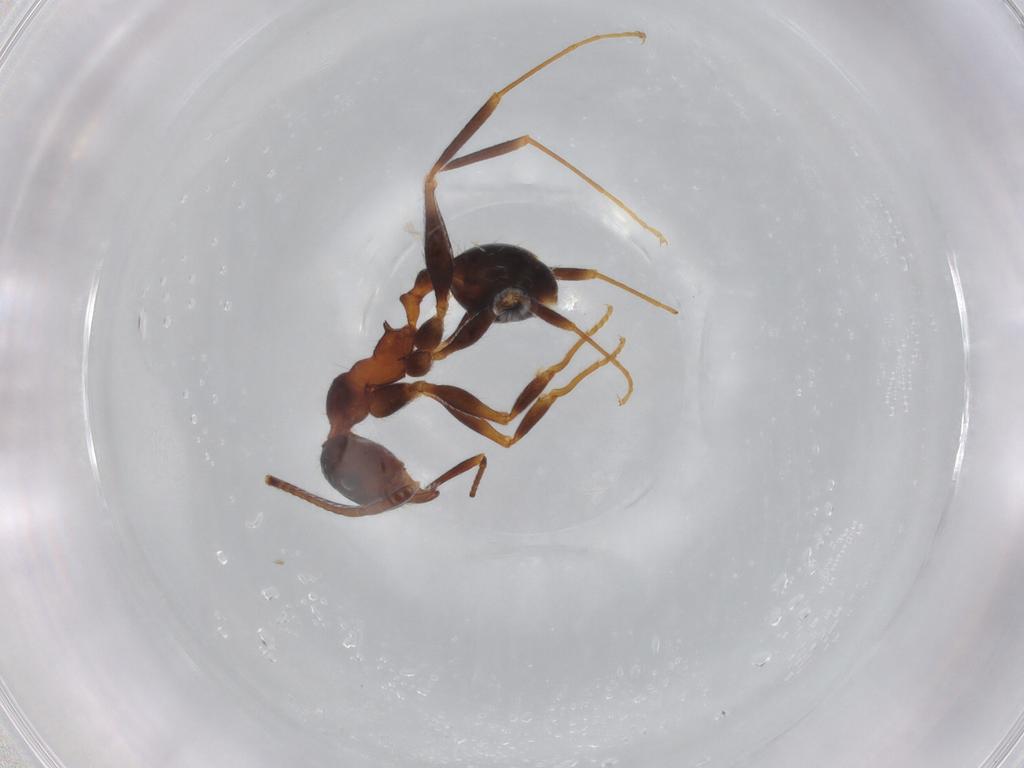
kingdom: Animalia
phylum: Arthropoda
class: Insecta
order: Hymenoptera
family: Formicidae
